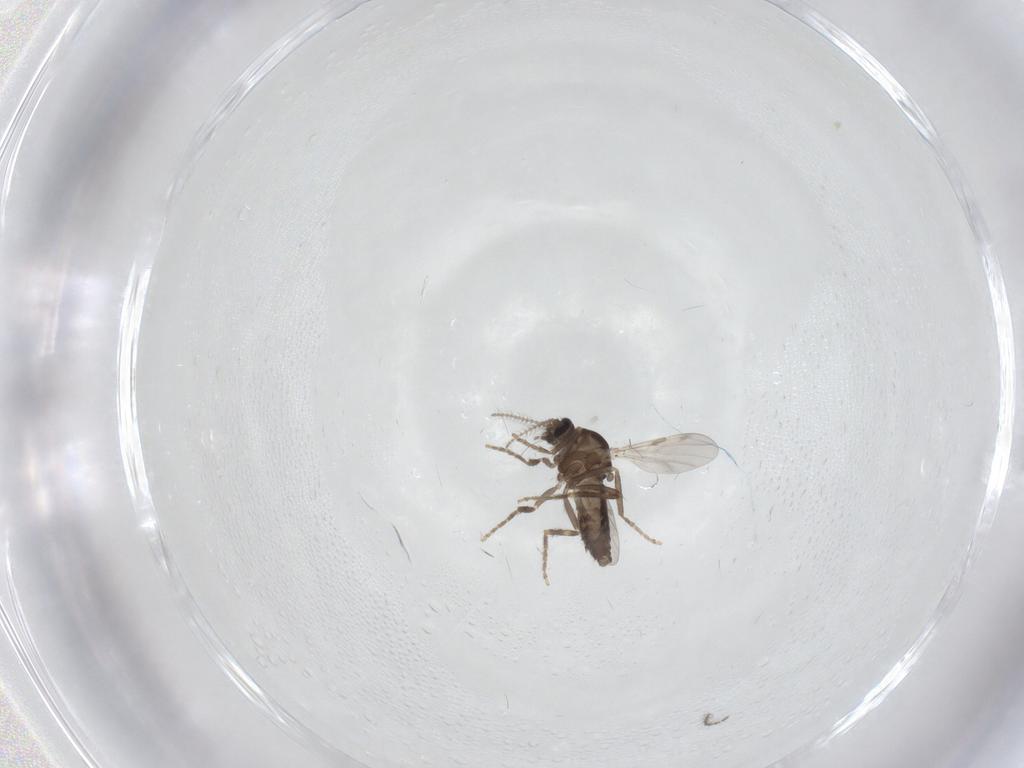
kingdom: Animalia
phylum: Arthropoda
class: Insecta
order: Diptera
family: Ceratopogonidae
